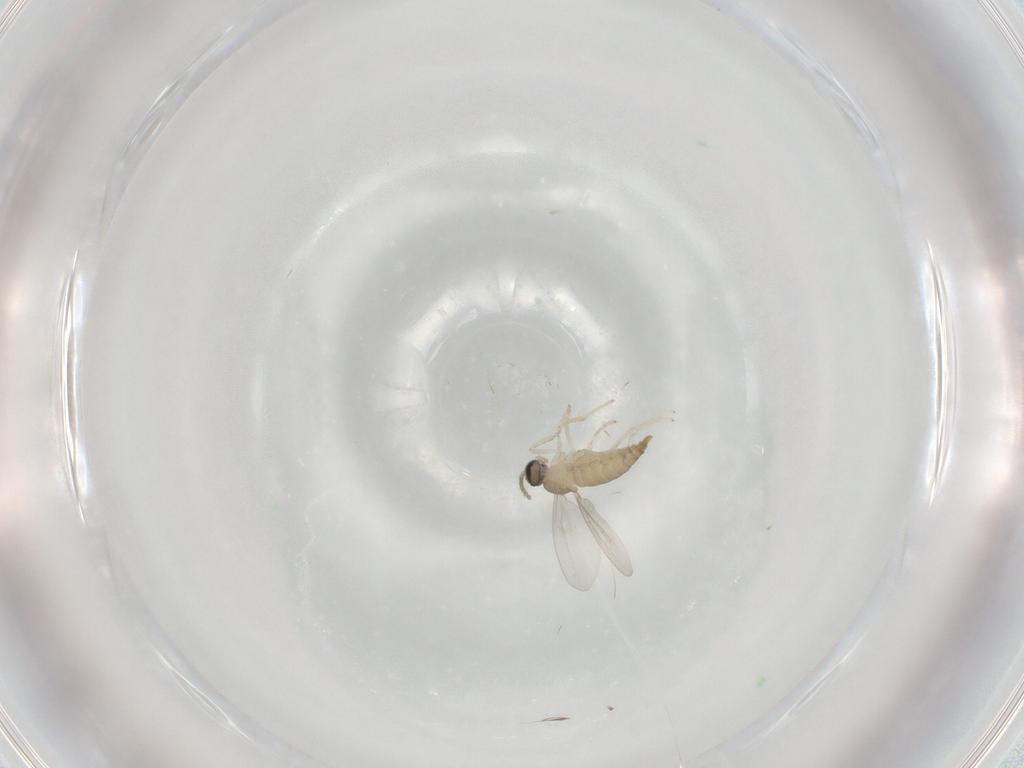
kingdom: Animalia
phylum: Arthropoda
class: Insecta
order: Diptera
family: Cecidomyiidae
